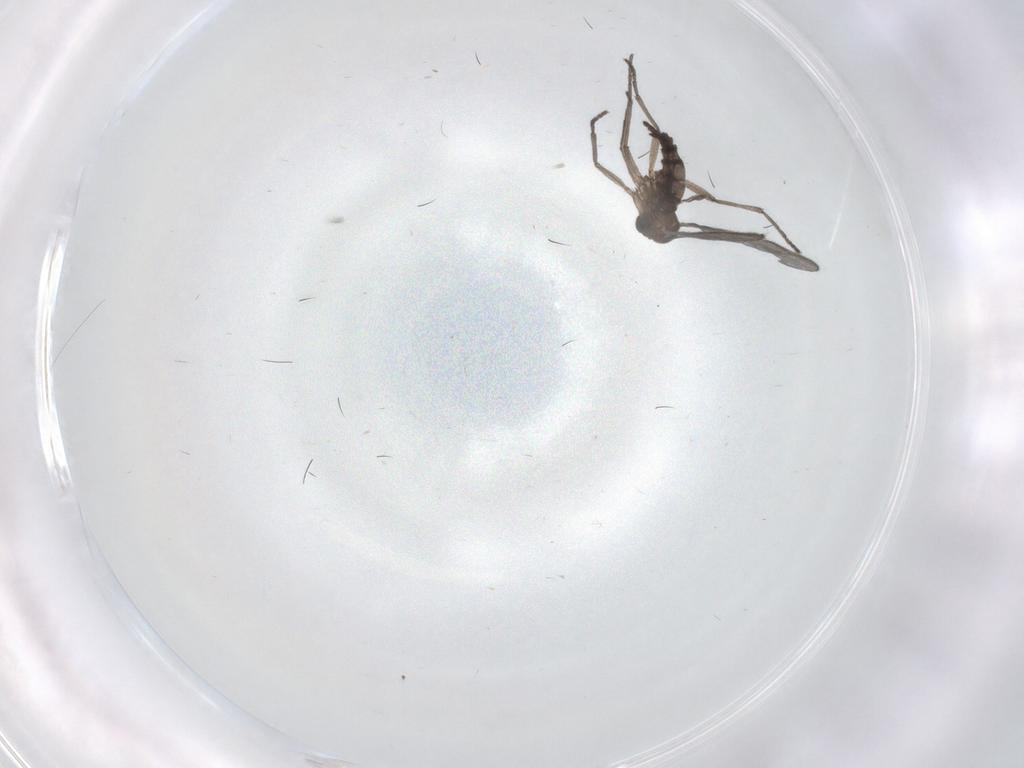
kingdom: Animalia
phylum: Arthropoda
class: Insecta
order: Diptera
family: Sciaridae
